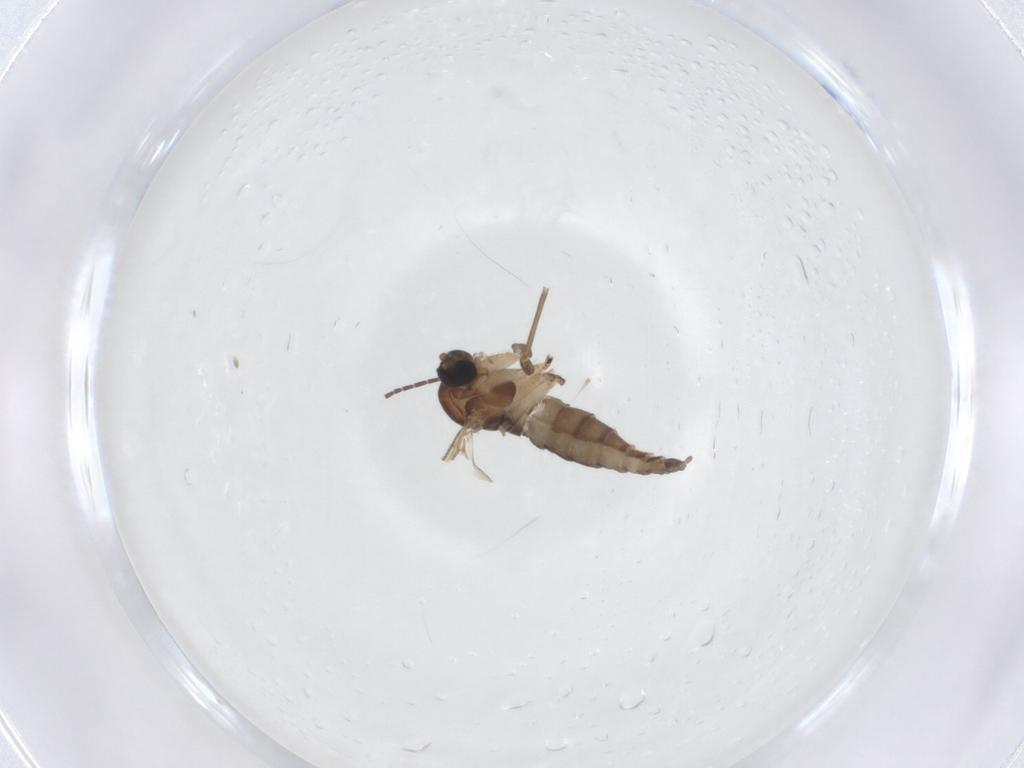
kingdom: Animalia
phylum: Arthropoda
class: Insecta
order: Diptera
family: Sciaridae
